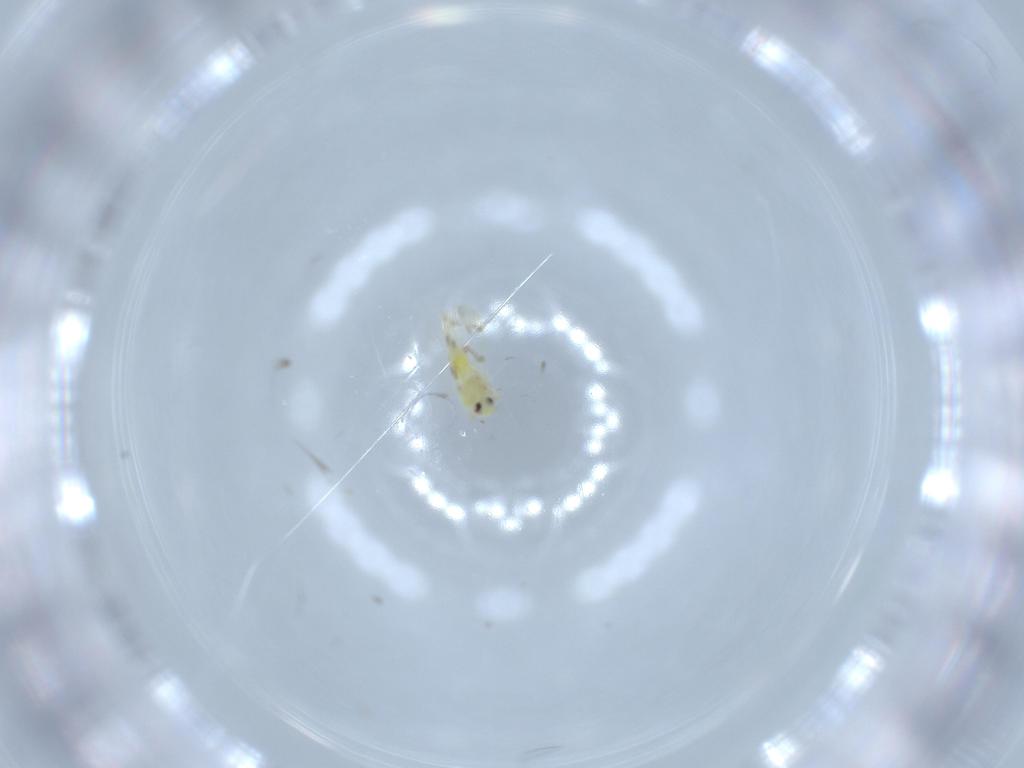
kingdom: Animalia
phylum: Arthropoda
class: Insecta
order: Hemiptera
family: Aleyrodidae
